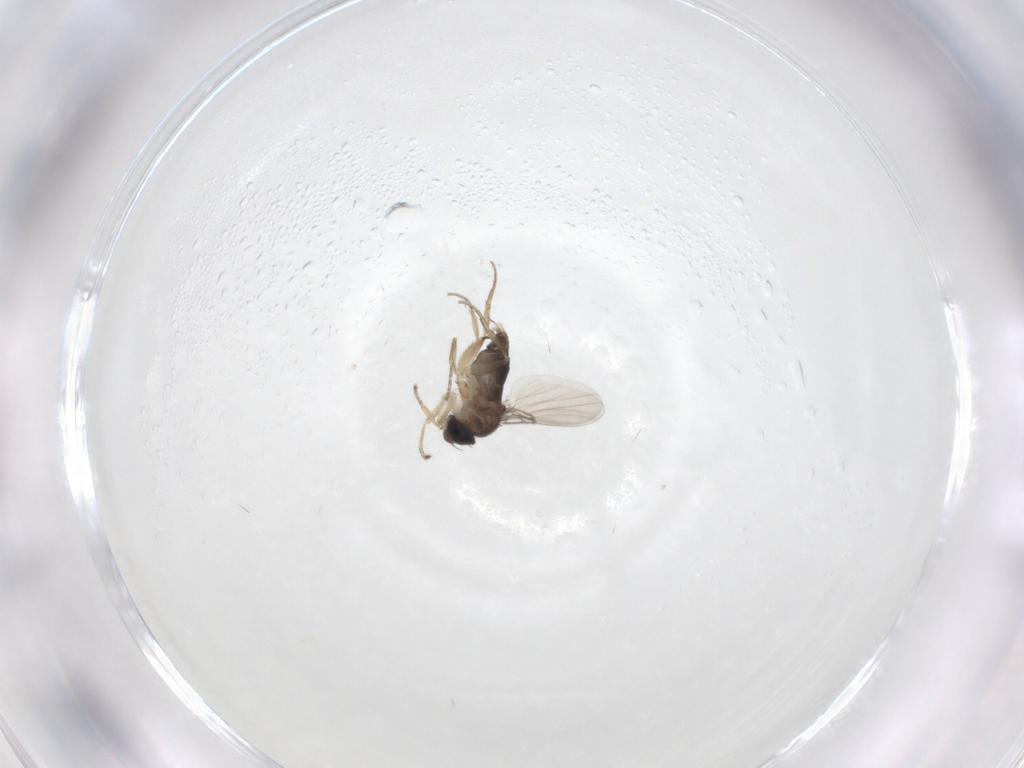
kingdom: Animalia
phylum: Arthropoda
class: Insecta
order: Diptera
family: Phoridae
